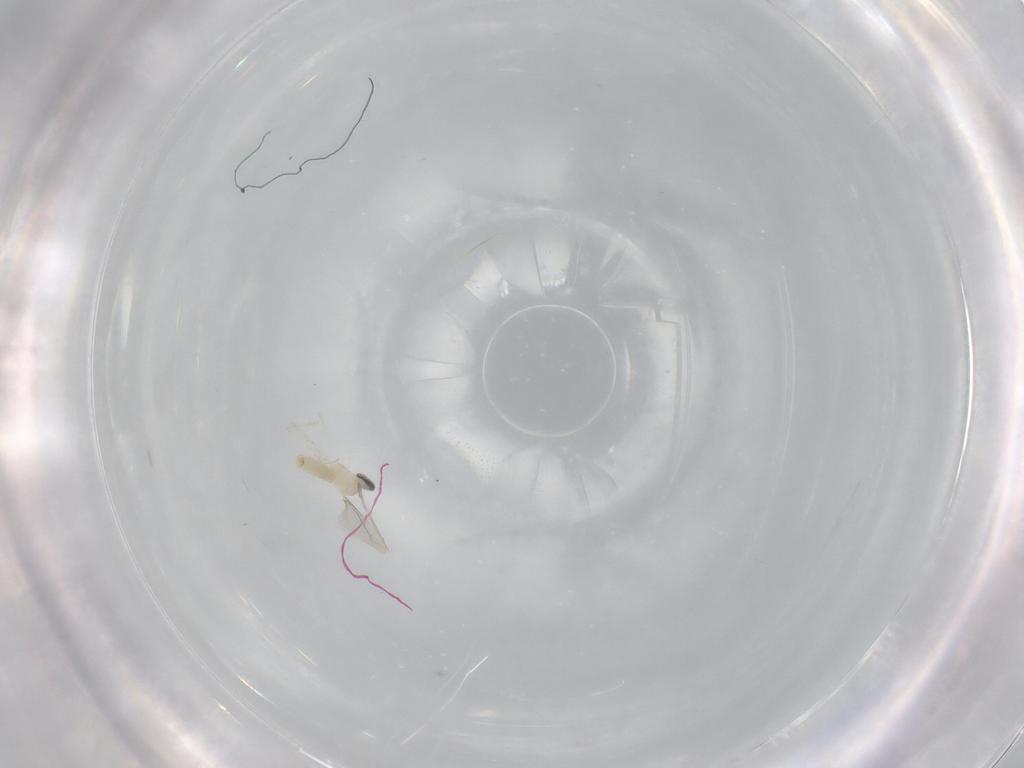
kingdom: Animalia
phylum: Arthropoda
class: Insecta
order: Diptera
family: Cecidomyiidae
